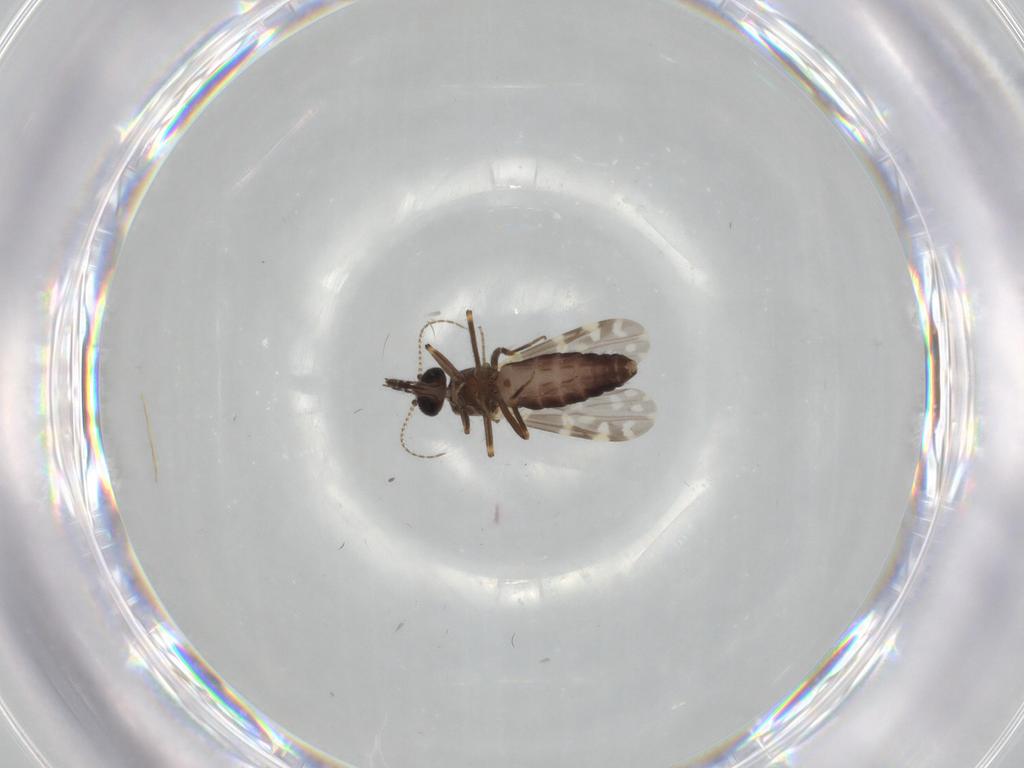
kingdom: Animalia
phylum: Arthropoda
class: Insecta
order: Diptera
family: Ceratopogonidae
